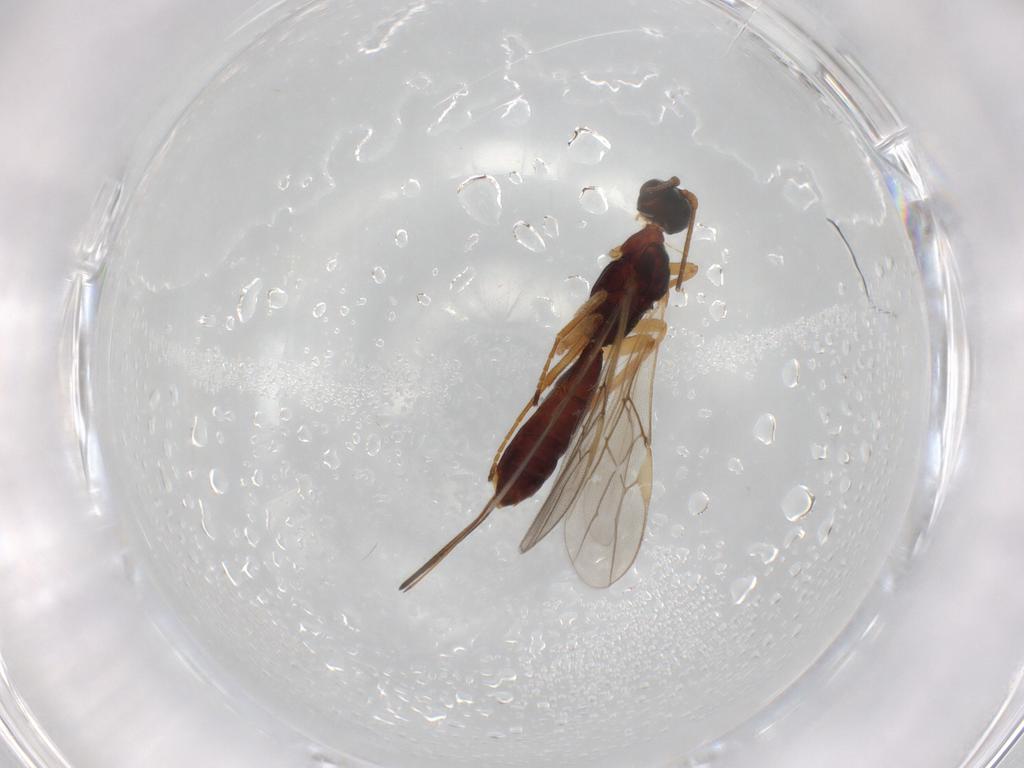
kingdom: Animalia
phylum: Arthropoda
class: Insecta
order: Hymenoptera
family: Braconidae
